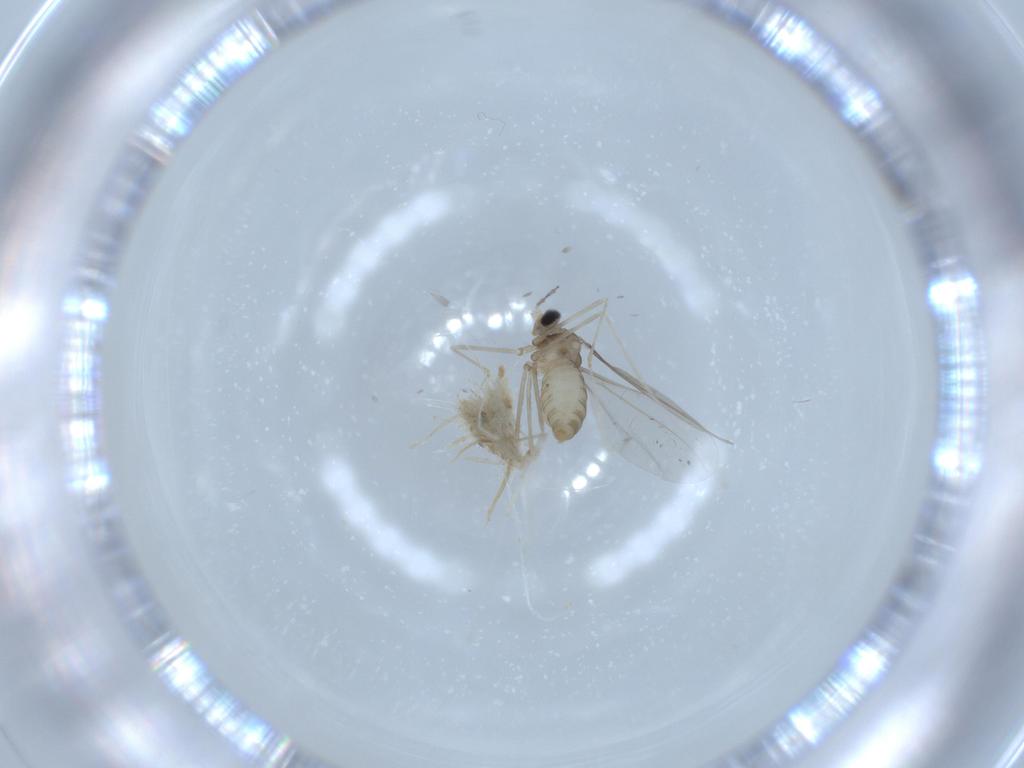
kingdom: Animalia
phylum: Arthropoda
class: Insecta
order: Diptera
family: Cecidomyiidae
